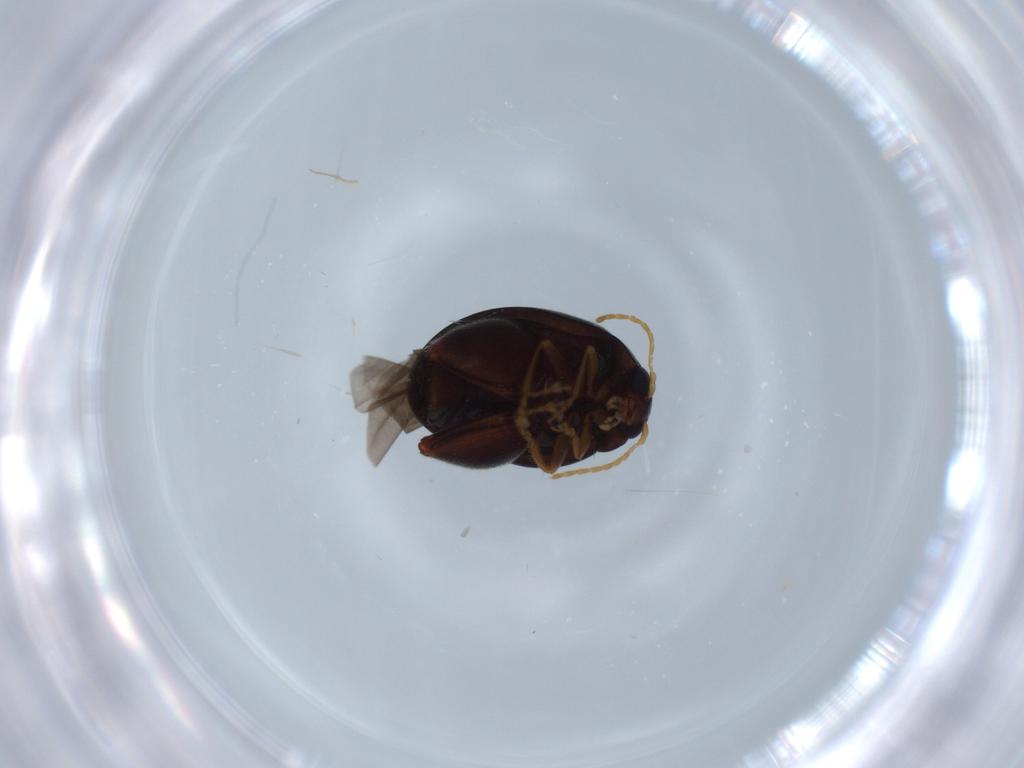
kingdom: Animalia
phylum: Arthropoda
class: Insecta
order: Coleoptera
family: Chrysomelidae
